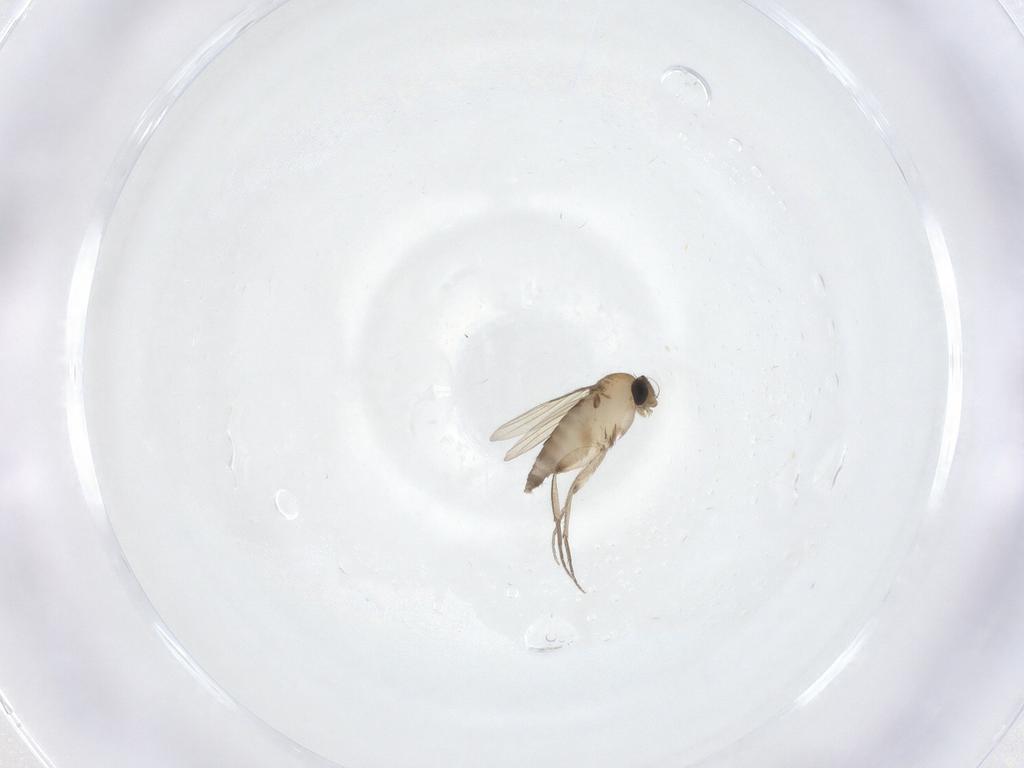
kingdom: Animalia
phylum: Arthropoda
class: Insecta
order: Diptera
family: Phoridae
